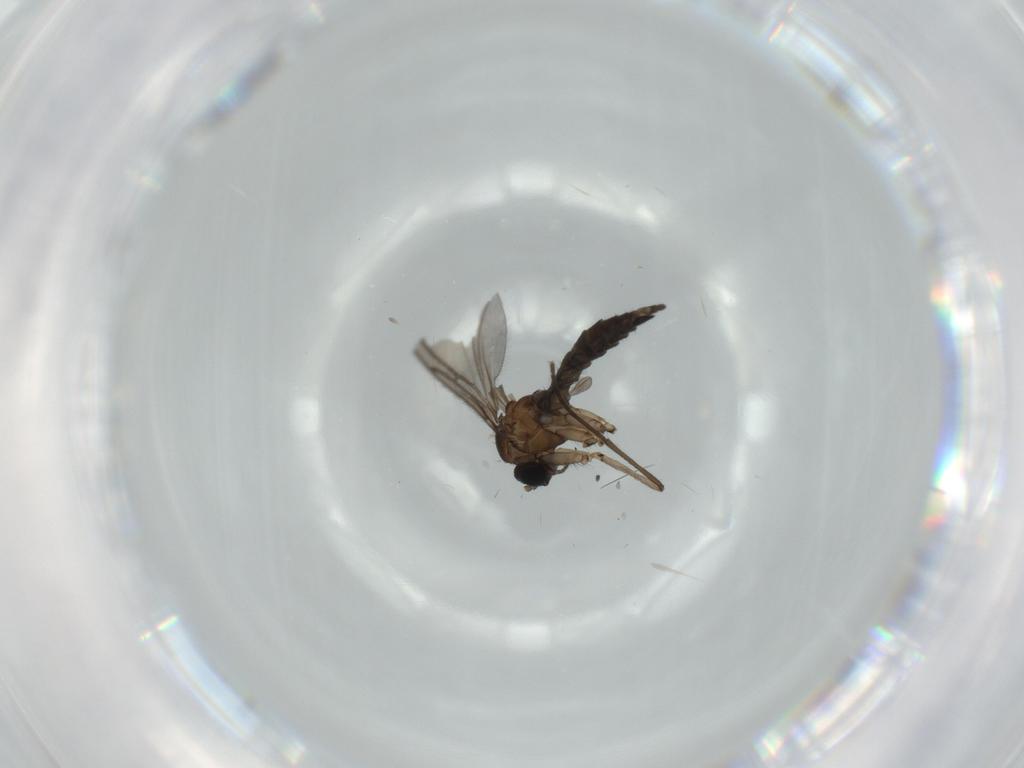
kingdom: Animalia
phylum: Arthropoda
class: Insecta
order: Diptera
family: Sciaridae
